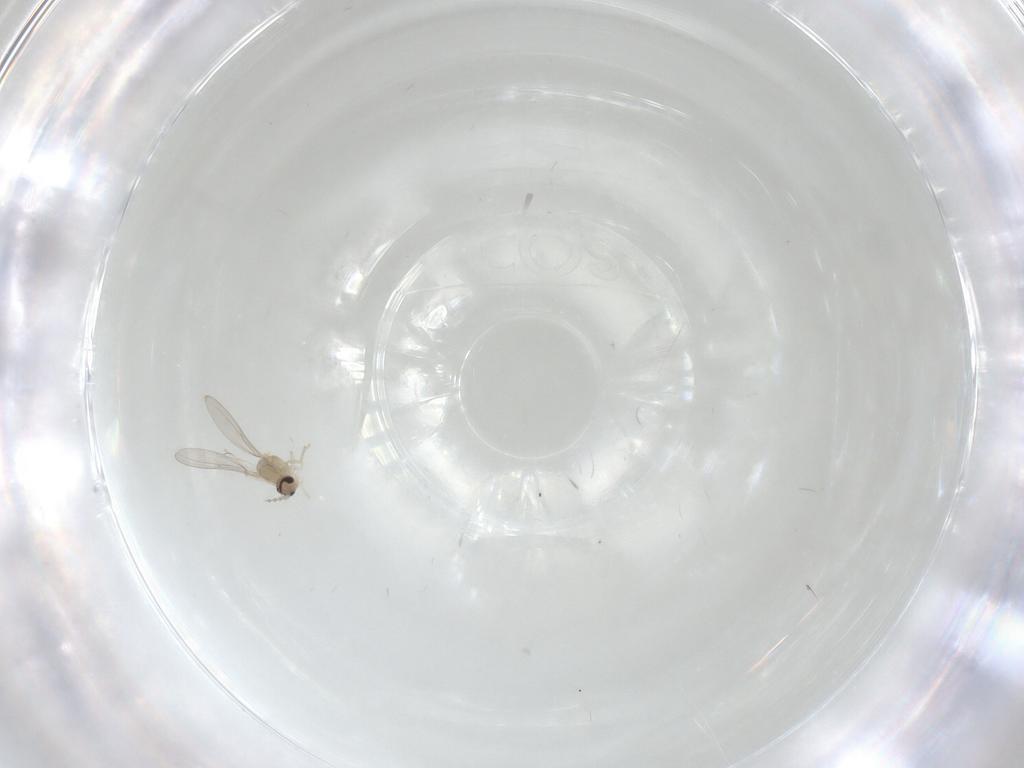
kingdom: Animalia
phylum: Arthropoda
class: Insecta
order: Diptera
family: Cecidomyiidae
